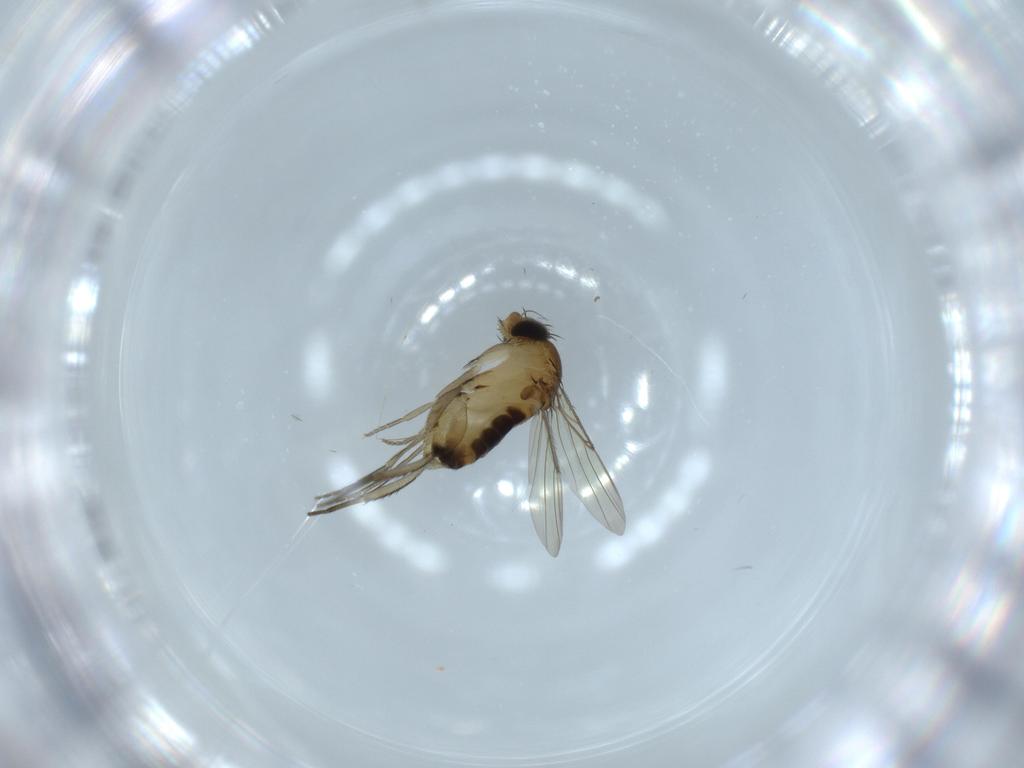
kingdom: Animalia
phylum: Arthropoda
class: Insecta
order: Diptera
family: Phoridae
